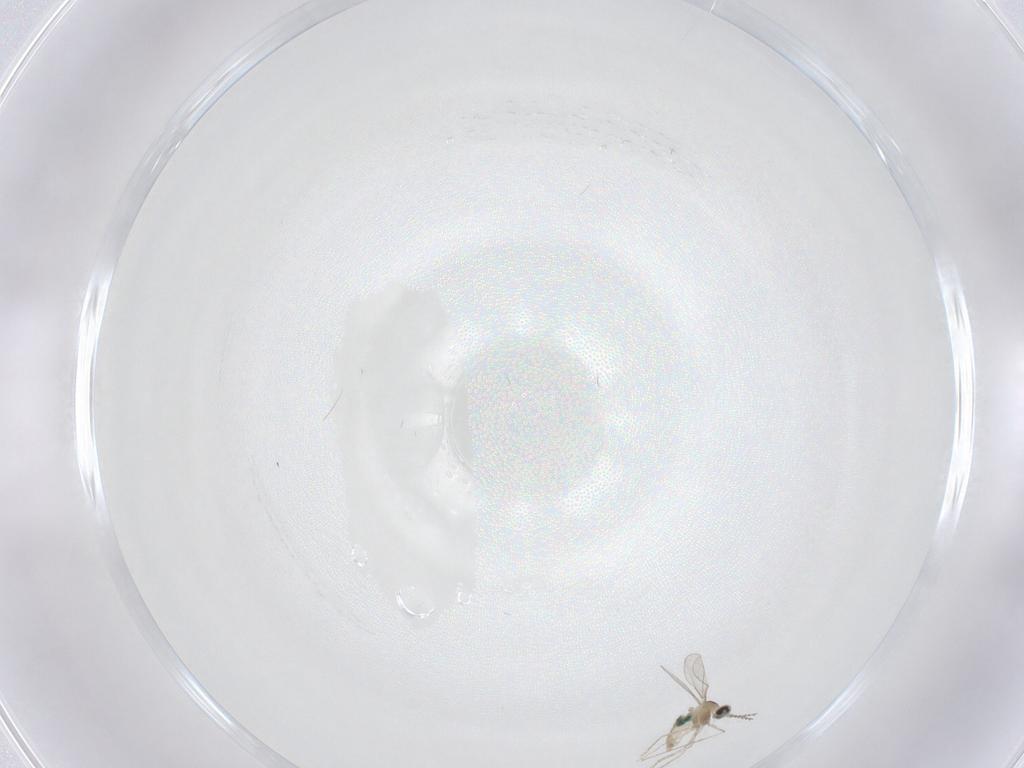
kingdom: Animalia
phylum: Arthropoda
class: Insecta
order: Diptera
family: Cecidomyiidae
